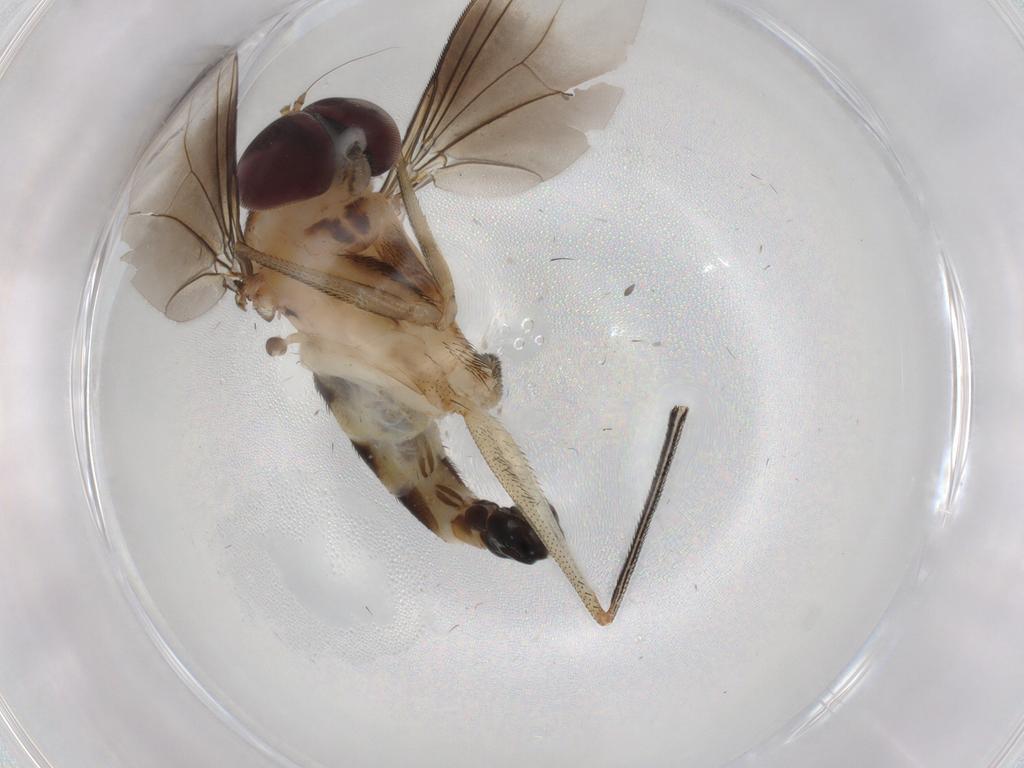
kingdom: Animalia
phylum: Arthropoda
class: Insecta
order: Diptera
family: Dolichopodidae
